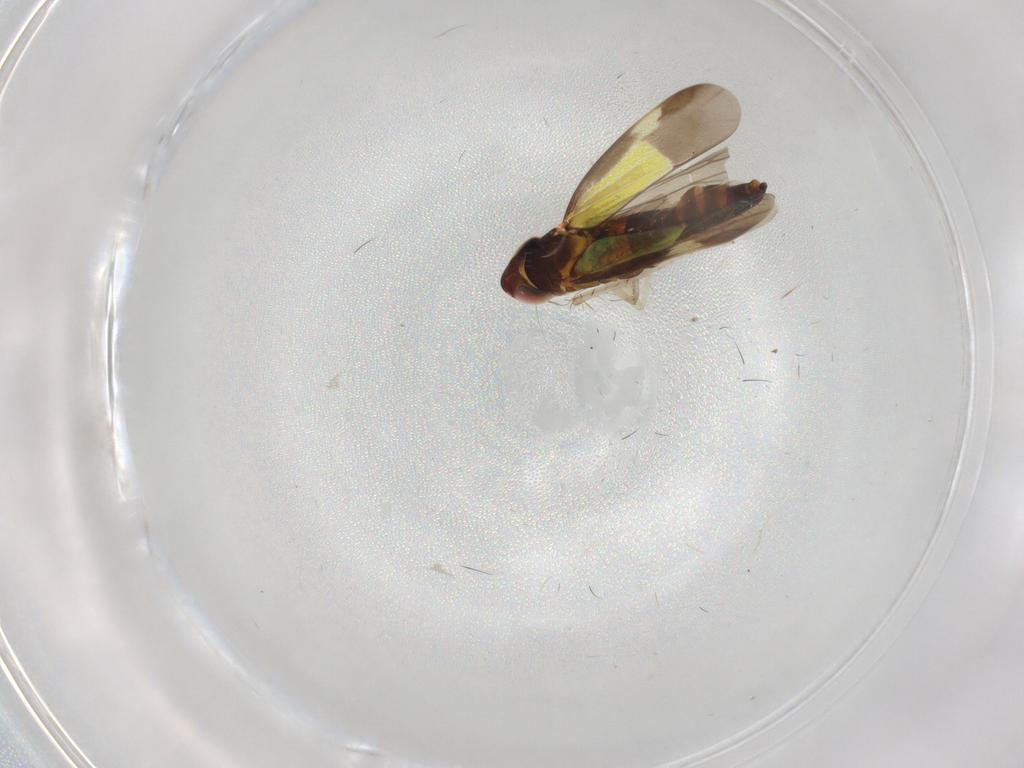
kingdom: Animalia
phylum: Arthropoda
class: Insecta
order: Hemiptera
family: Cicadellidae
